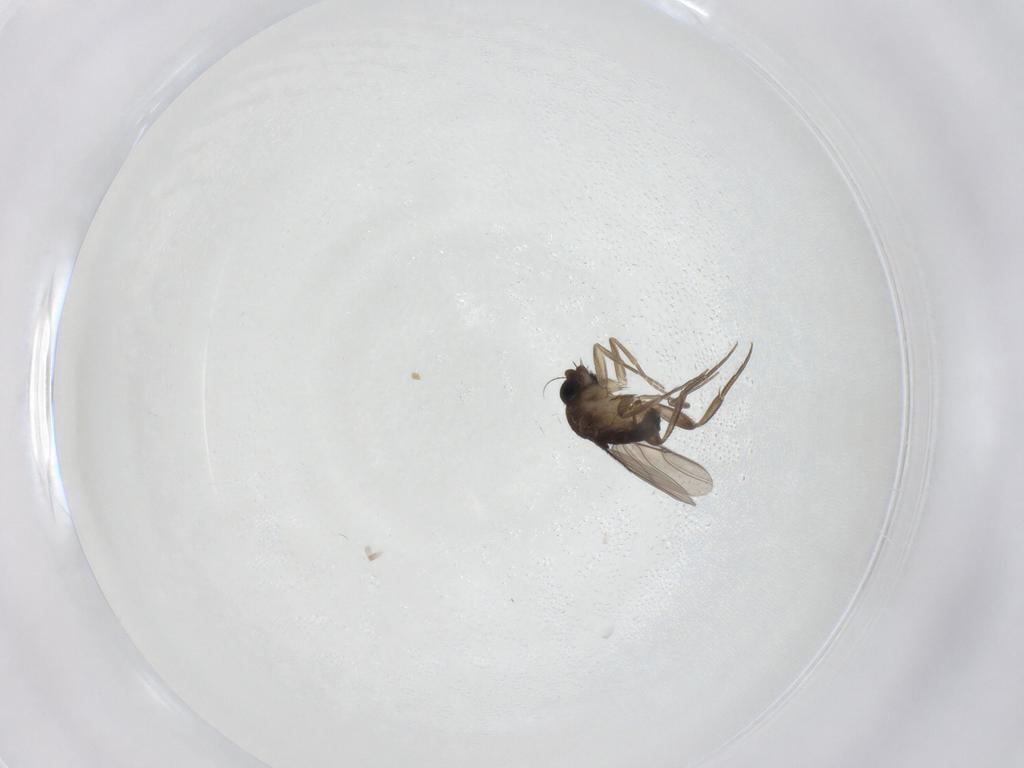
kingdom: Animalia
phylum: Arthropoda
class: Insecta
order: Diptera
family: Phoridae
